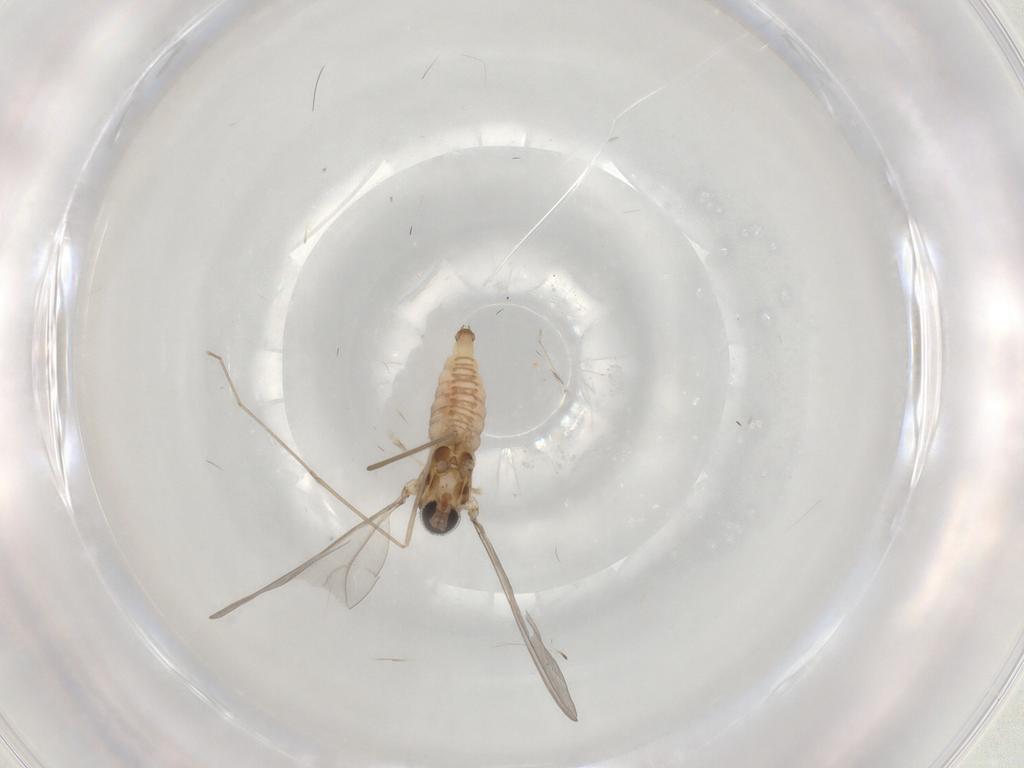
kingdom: Animalia
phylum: Arthropoda
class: Insecta
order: Diptera
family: Cecidomyiidae
